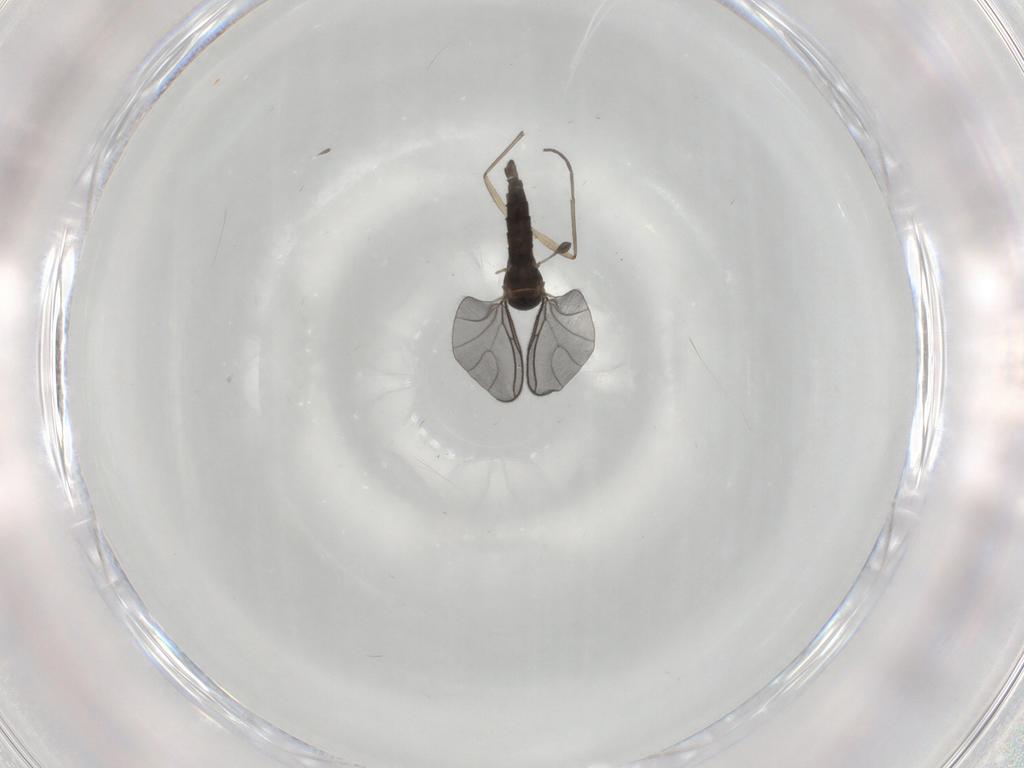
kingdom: Animalia
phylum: Arthropoda
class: Insecta
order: Diptera
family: Sciaridae
